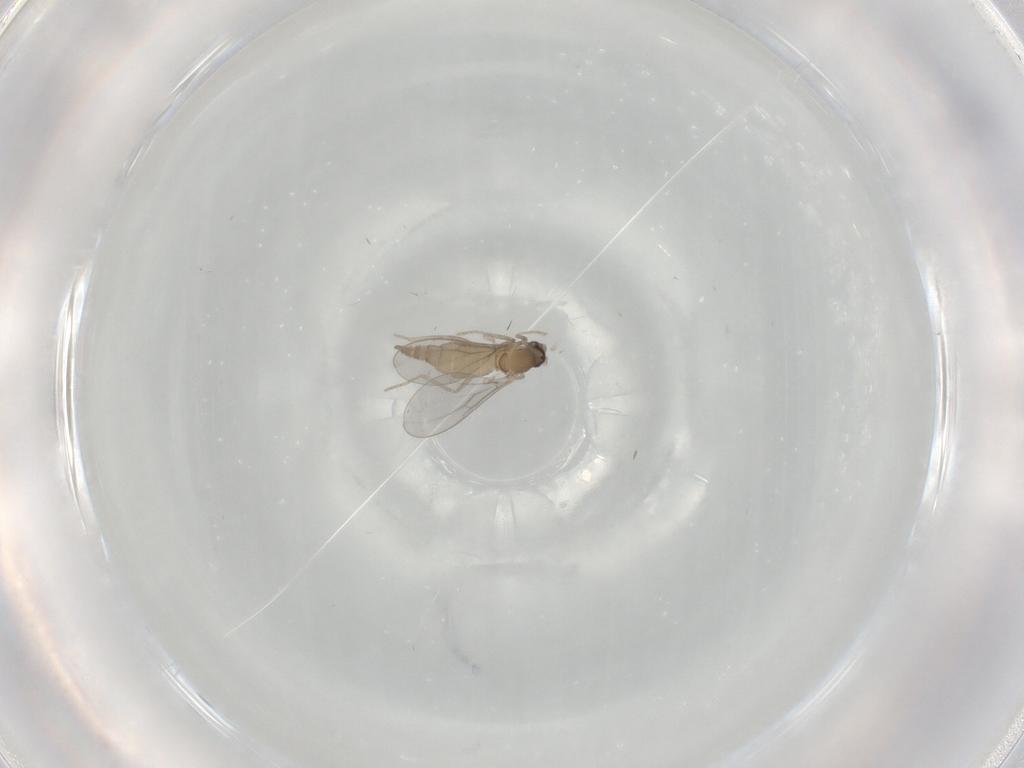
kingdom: Animalia
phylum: Arthropoda
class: Insecta
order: Diptera
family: Cecidomyiidae
